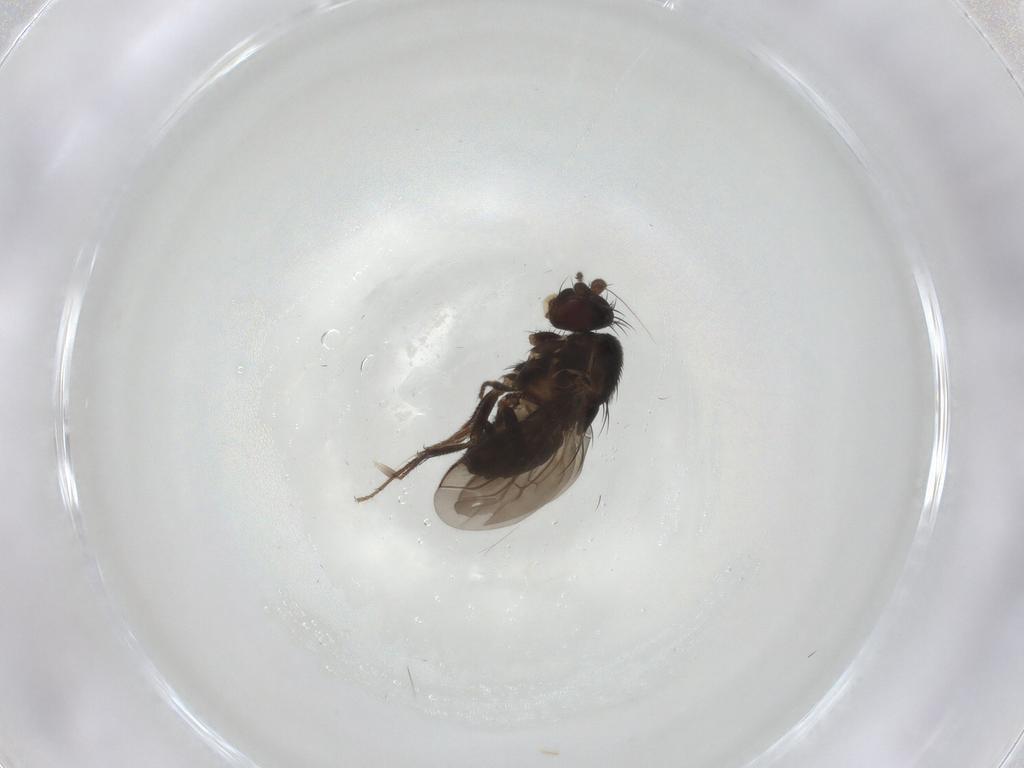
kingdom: Animalia
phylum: Arthropoda
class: Insecta
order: Diptera
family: Sphaeroceridae
